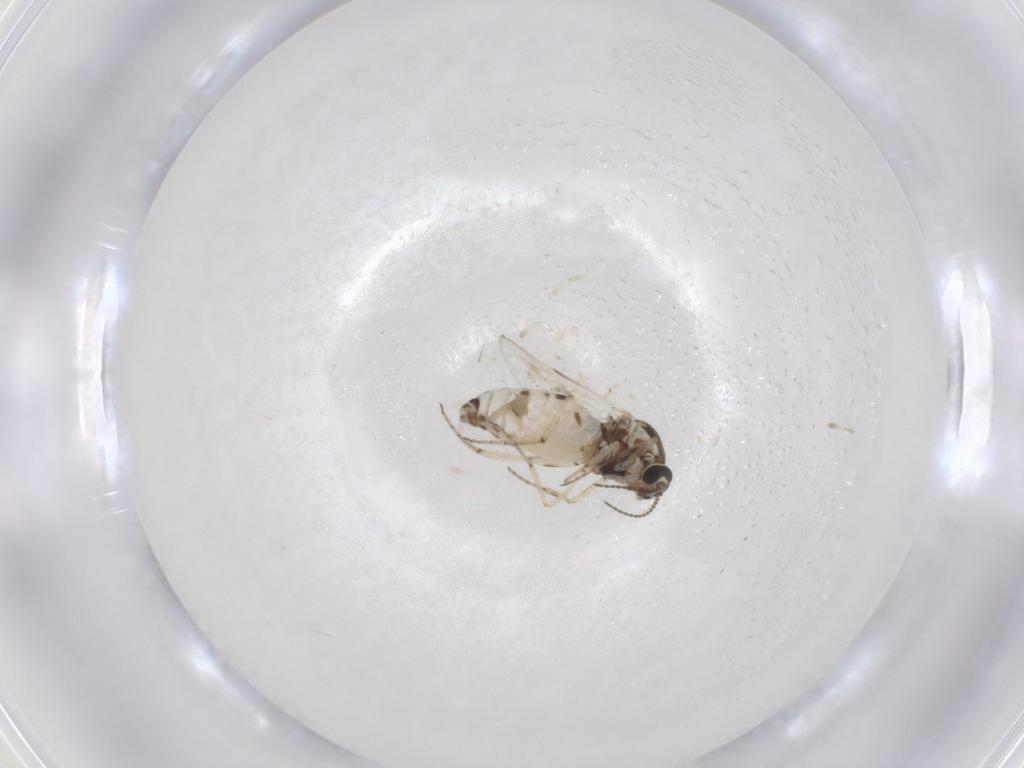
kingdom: Animalia
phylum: Arthropoda
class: Insecta
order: Diptera
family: Ceratopogonidae
